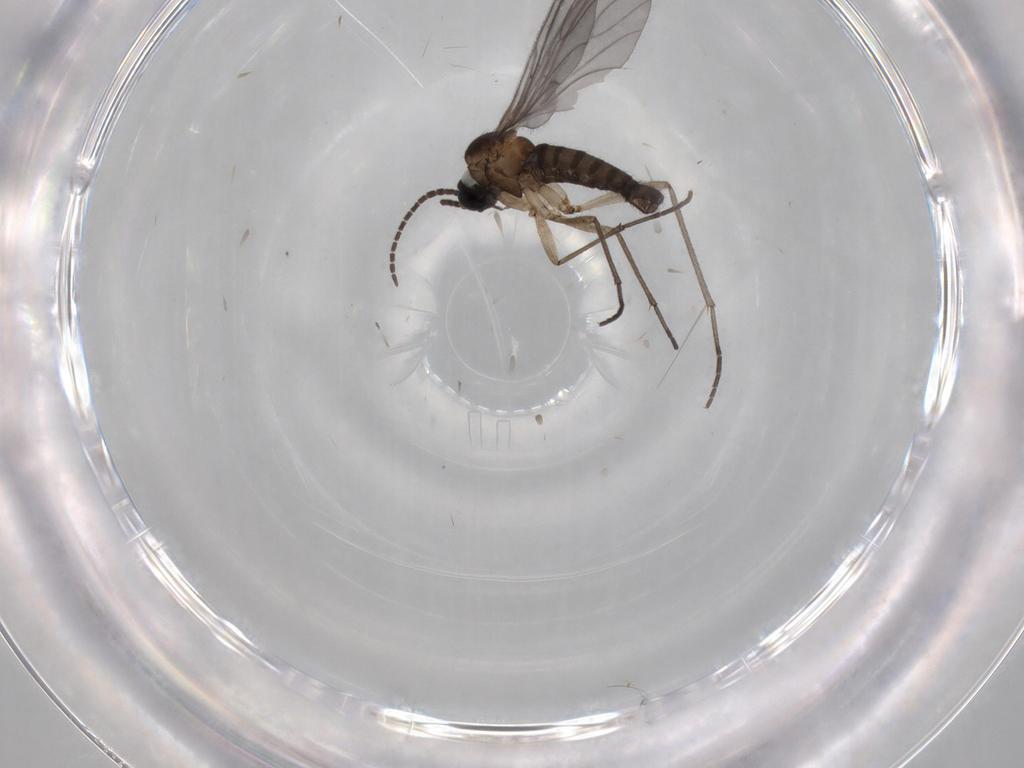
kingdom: Animalia
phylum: Arthropoda
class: Insecta
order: Diptera
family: Sciaridae
